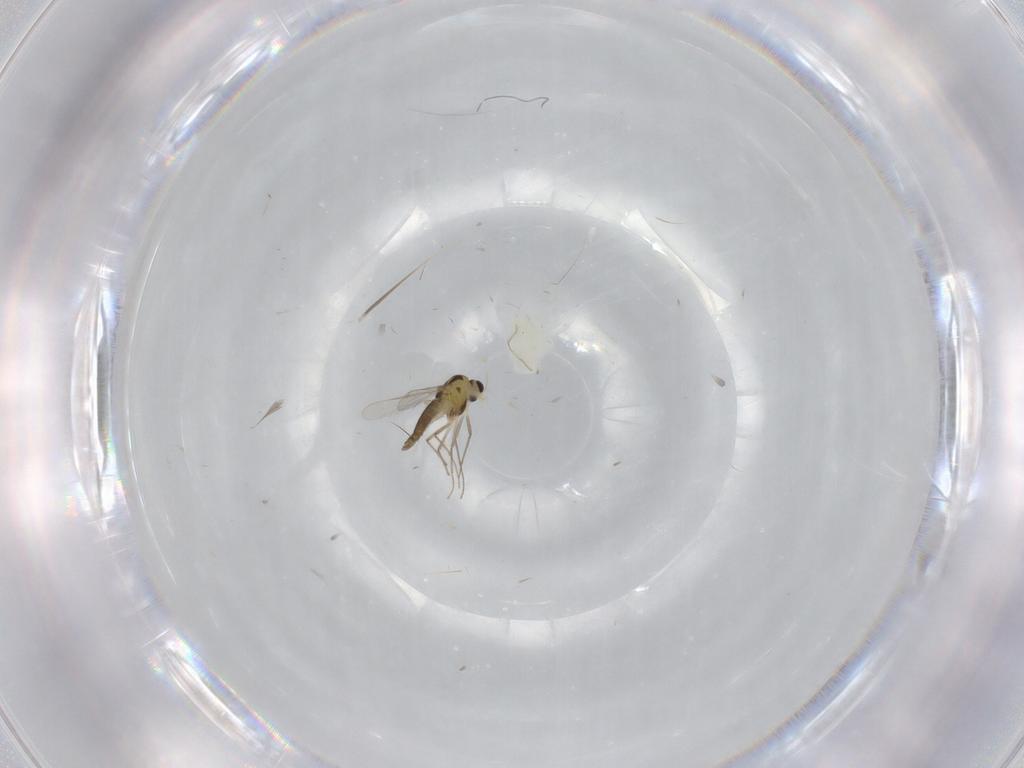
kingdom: Animalia
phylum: Arthropoda
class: Insecta
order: Diptera
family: Chironomidae
